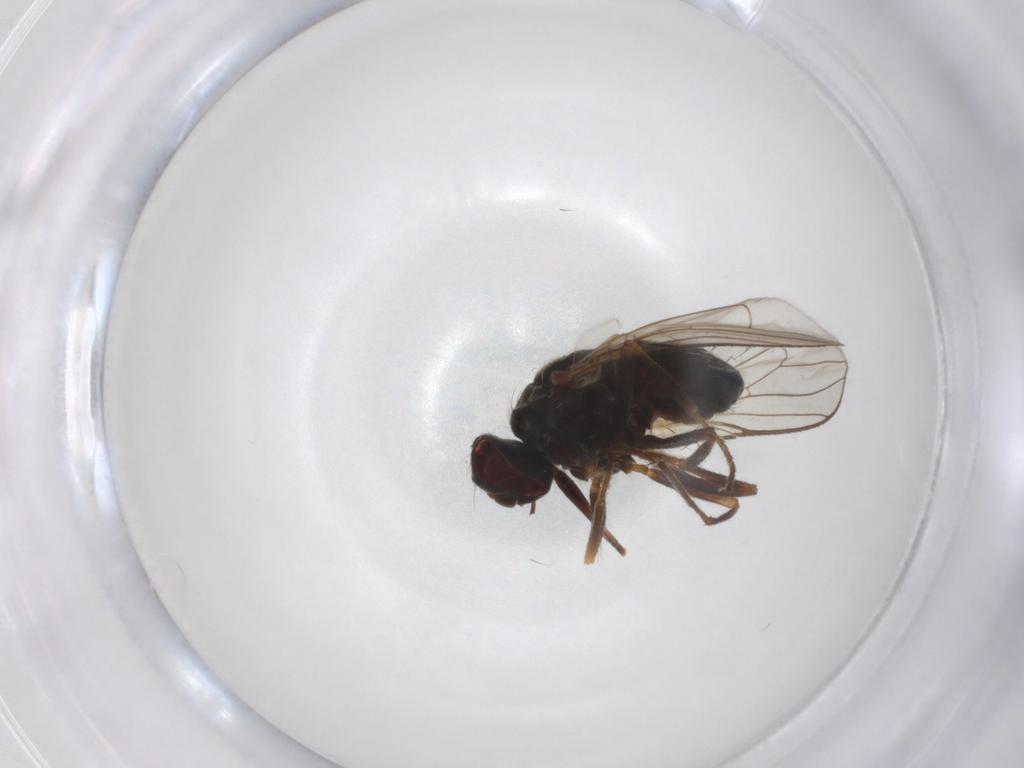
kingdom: Animalia
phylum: Arthropoda
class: Insecta
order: Diptera
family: Muscidae
